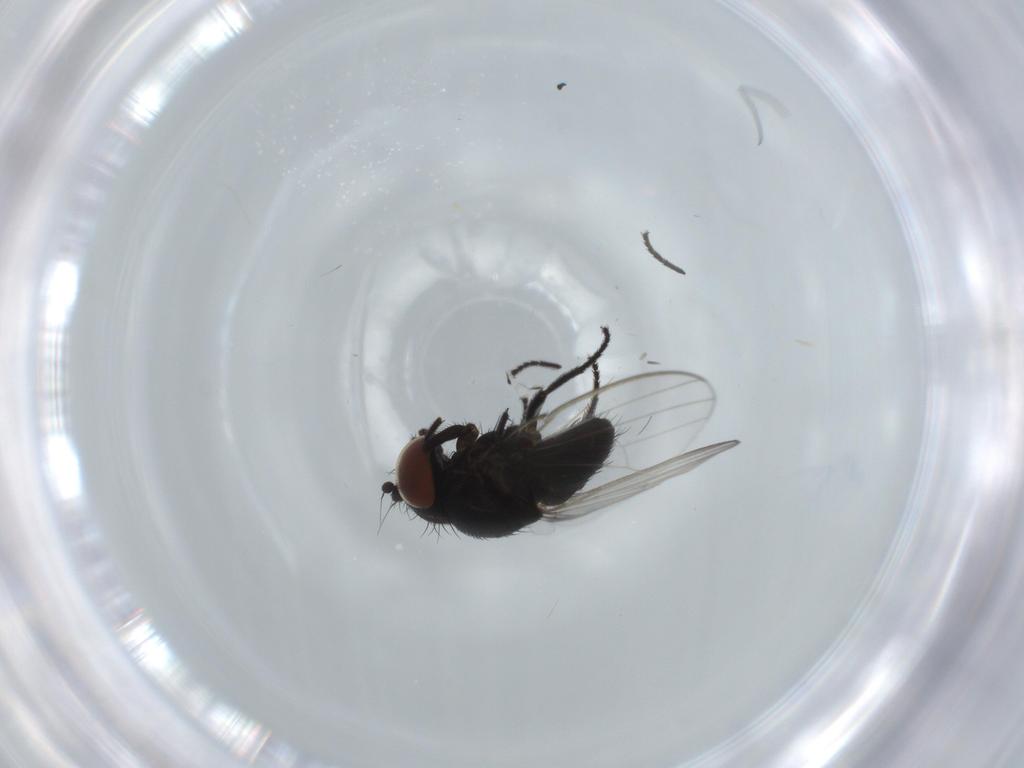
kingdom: Animalia
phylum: Arthropoda
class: Insecta
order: Diptera
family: Milichiidae
